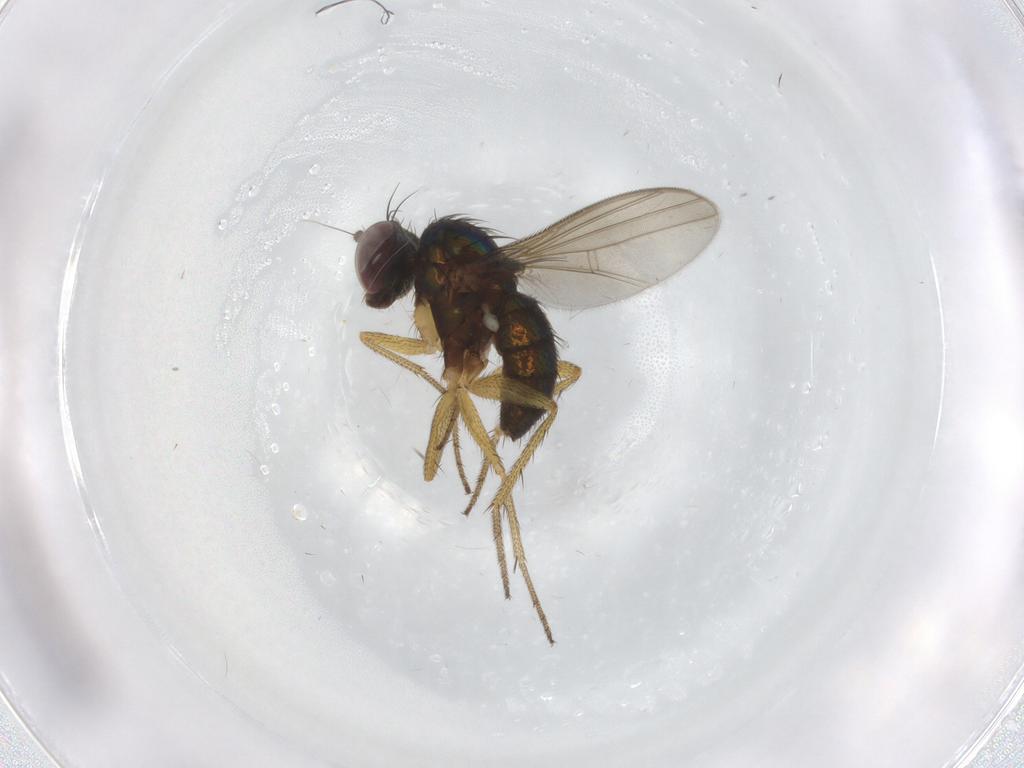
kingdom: Animalia
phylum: Arthropoda
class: Insecta
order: Diptera
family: Dolichopodidae
